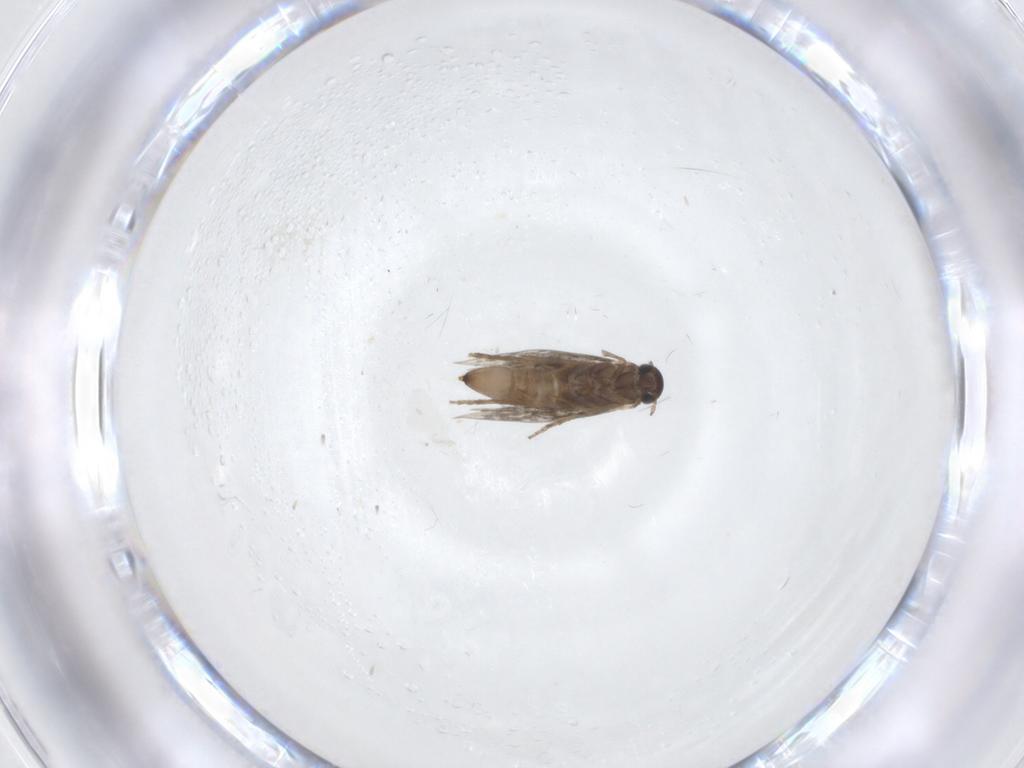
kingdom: Animalia
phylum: Arthropoda
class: Insecta
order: Lepidoptera
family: Heliozelidae
